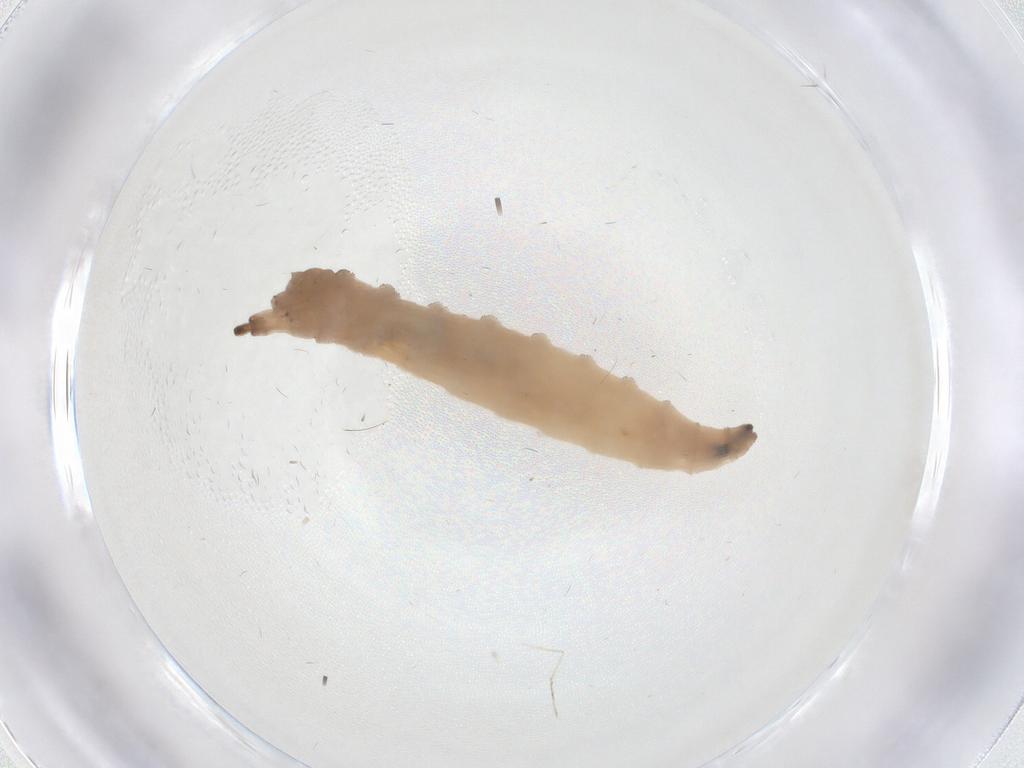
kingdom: Animalia
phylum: Arthropoda
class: Insecta
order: Diptera
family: Drosophilidae
